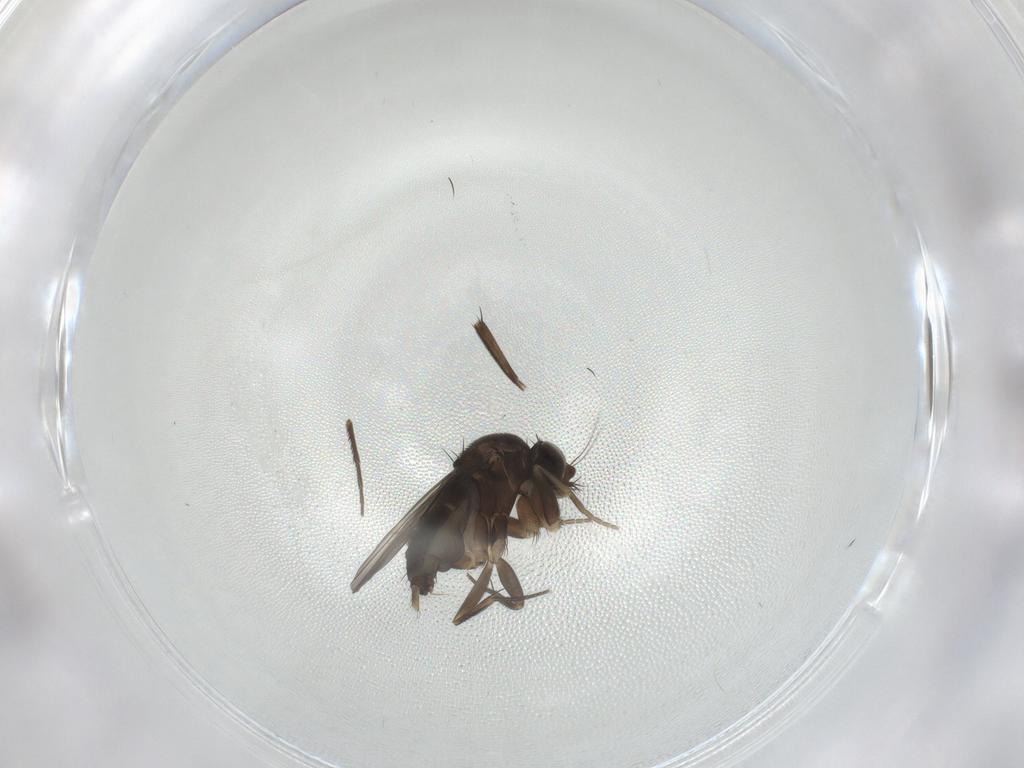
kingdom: Animalia
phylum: Arthropoda
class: Insecta
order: Diptera
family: Phoridae
